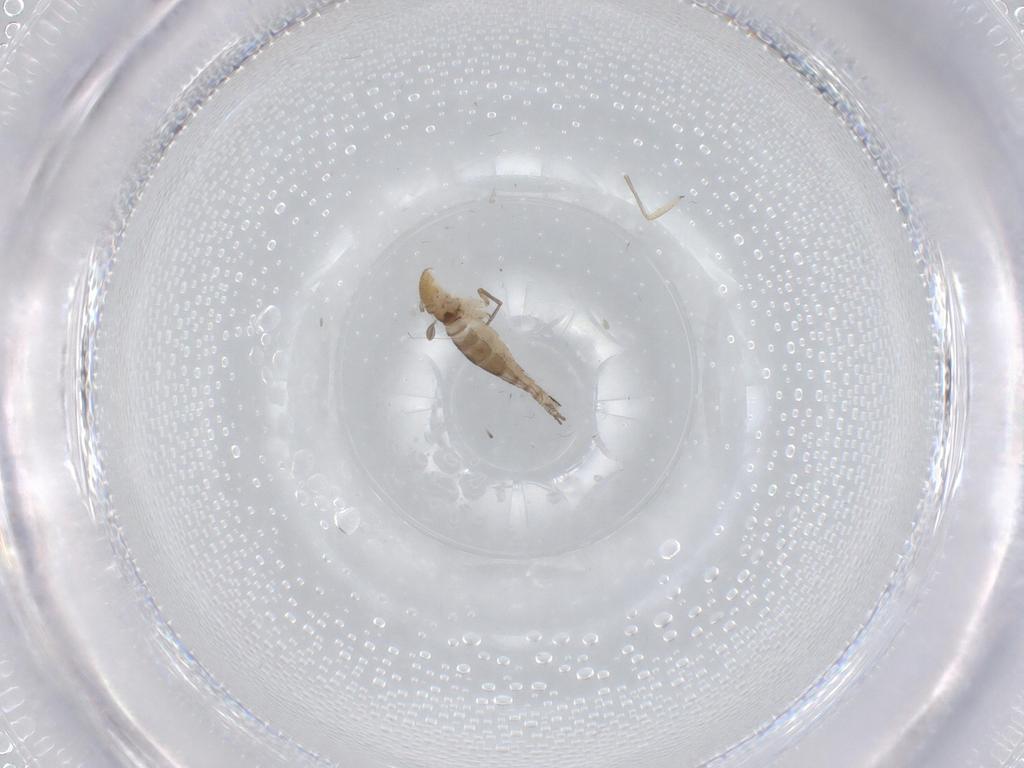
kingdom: Animalia
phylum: Arthropoda
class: Insecta
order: Diptera
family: Sciaridae
